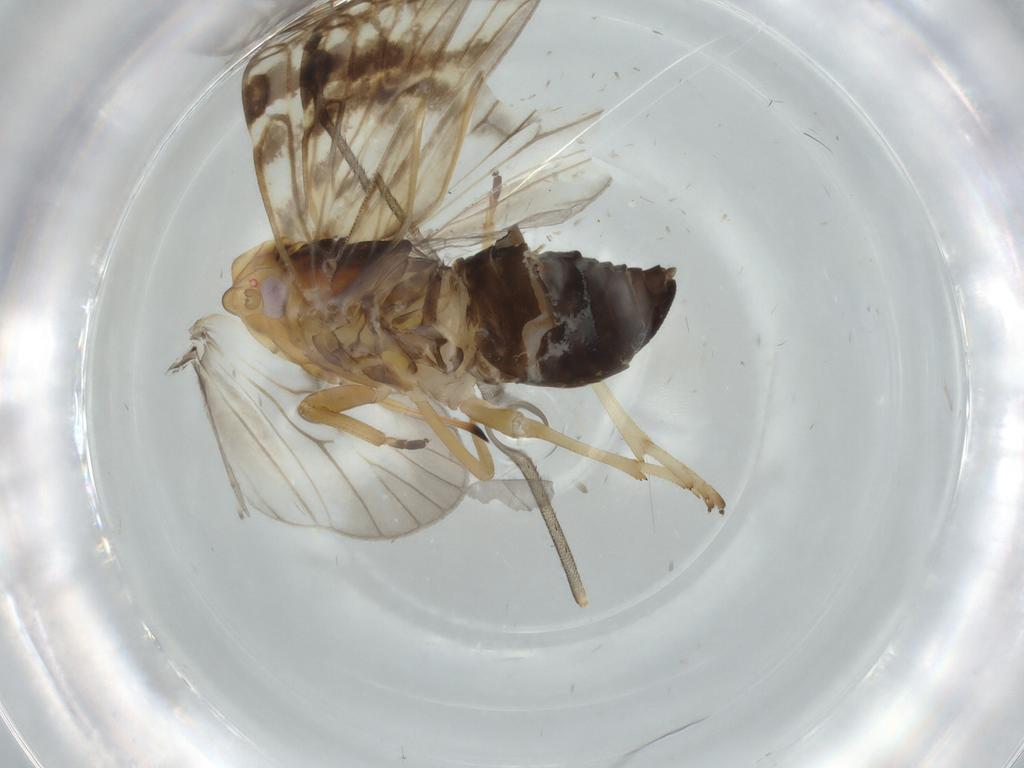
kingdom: Animalia
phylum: Arthropoda
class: Insecta
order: Hemiptera
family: Cixiidae
